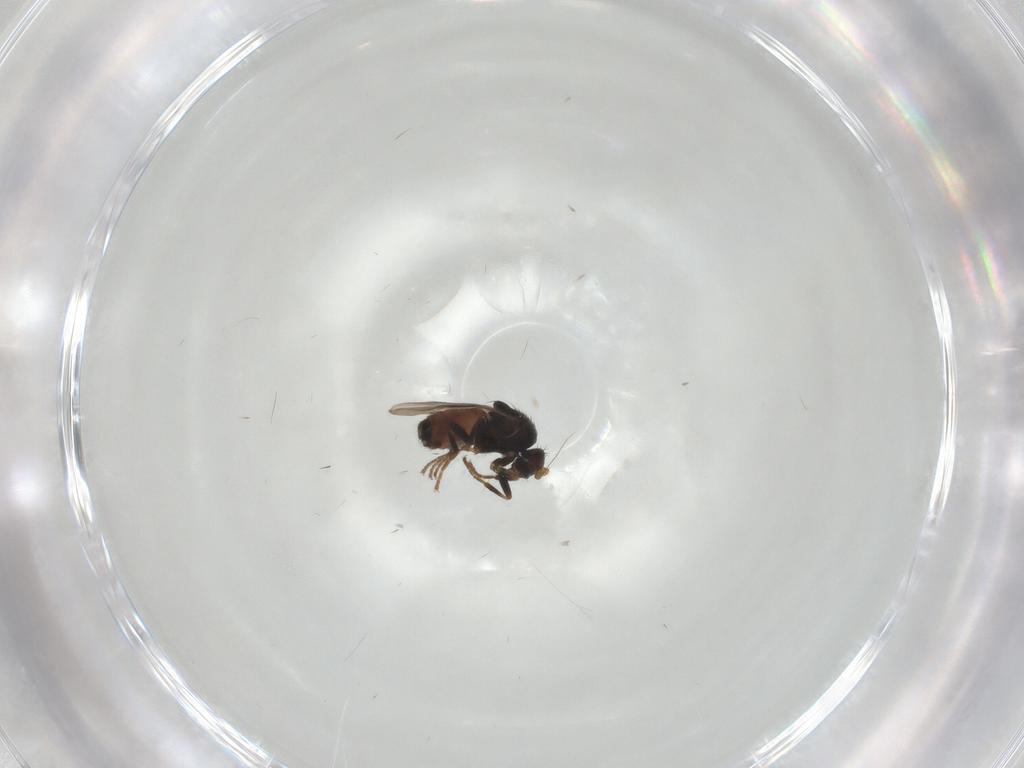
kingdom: Animalia
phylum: Arthropoda
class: Insecta
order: Diptera
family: Sphaeroceridae
